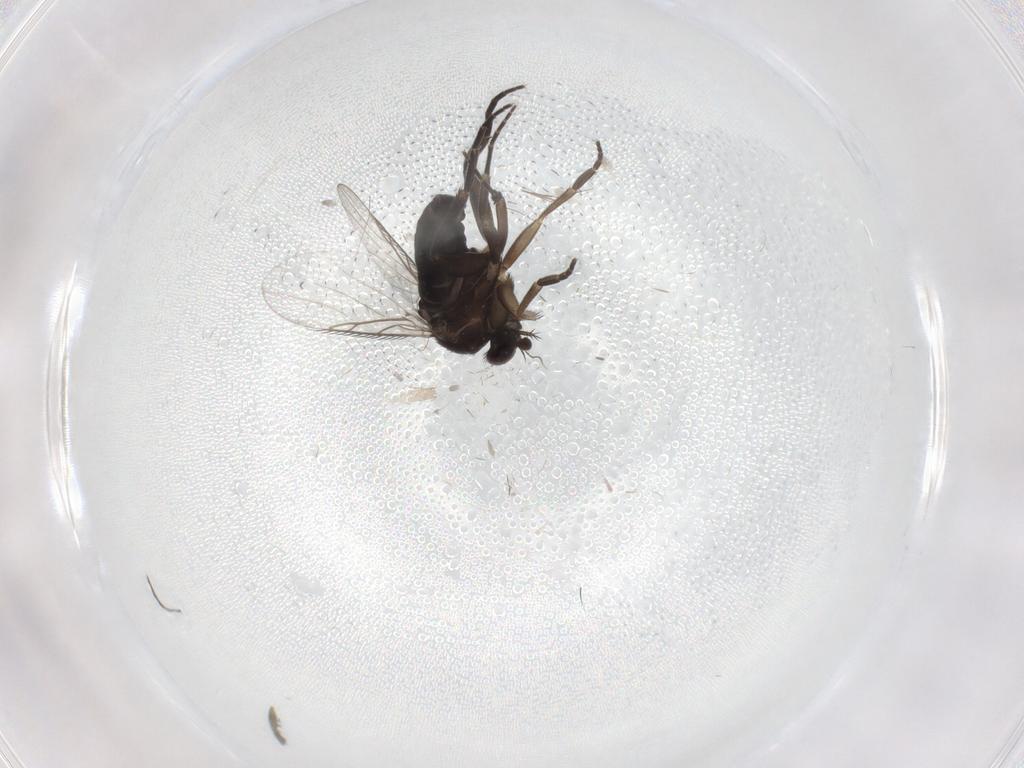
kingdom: Animalia
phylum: Arthropoda
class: Insecta
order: Diptera
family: Phoridae
